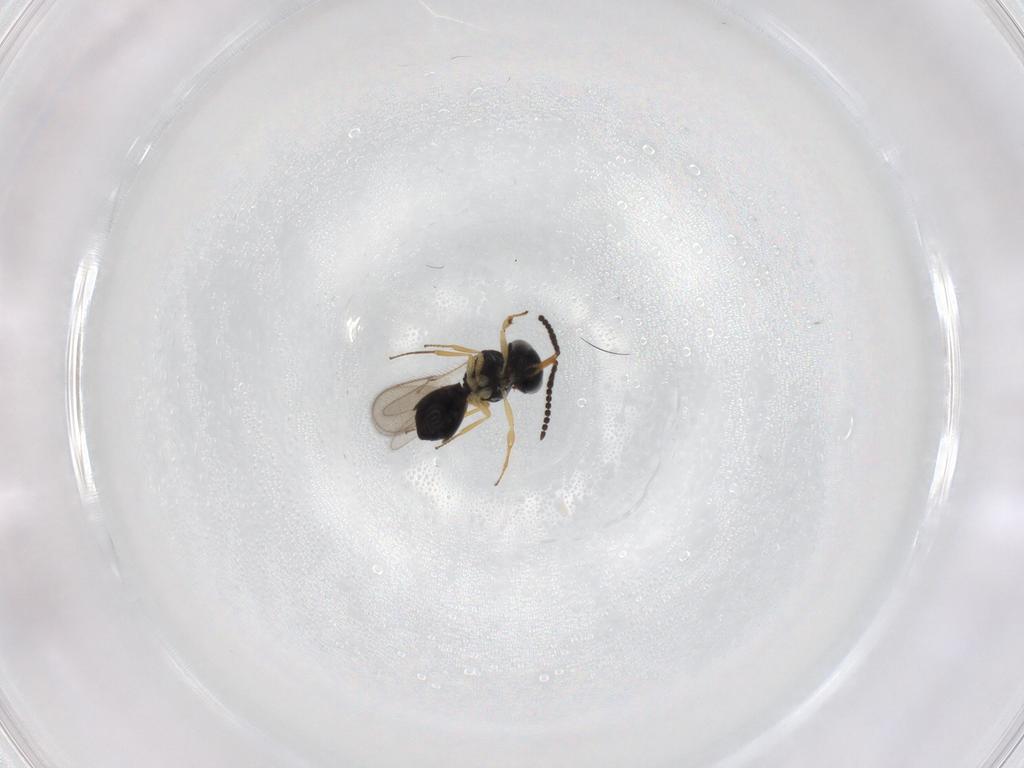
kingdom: Animalia
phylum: Arthropoda
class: Insecta
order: Hymenoptera
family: Scelionidae
